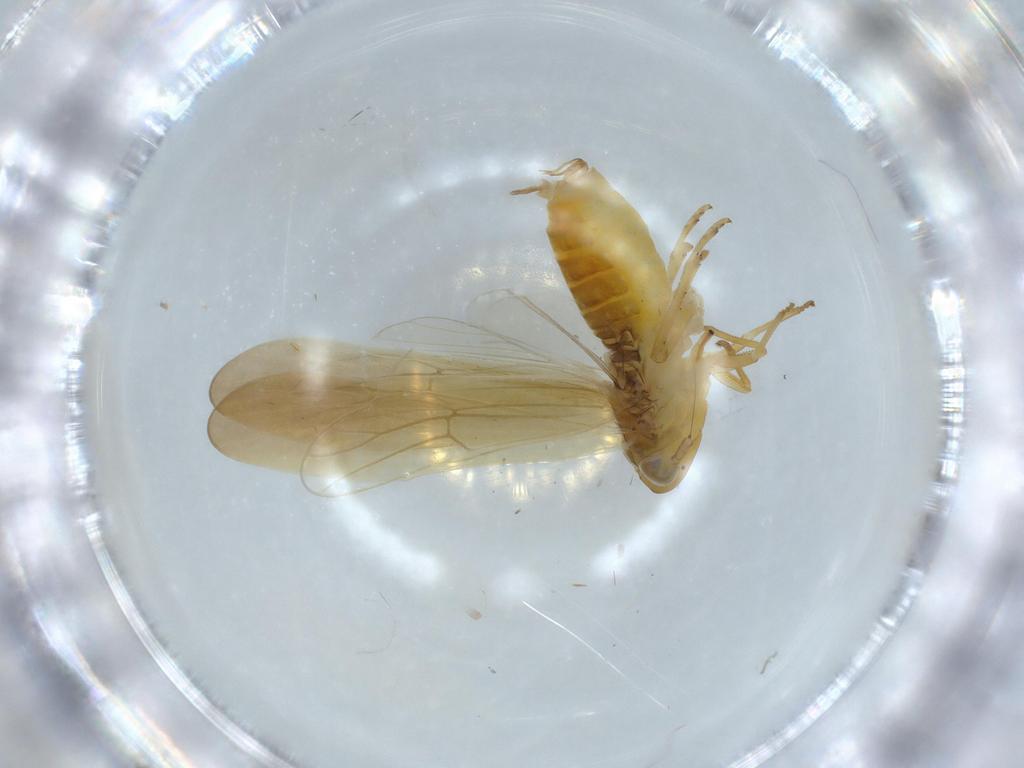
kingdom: Animalia
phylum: Arthropoda
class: Insecta
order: Hemiptera
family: Delphacidae
